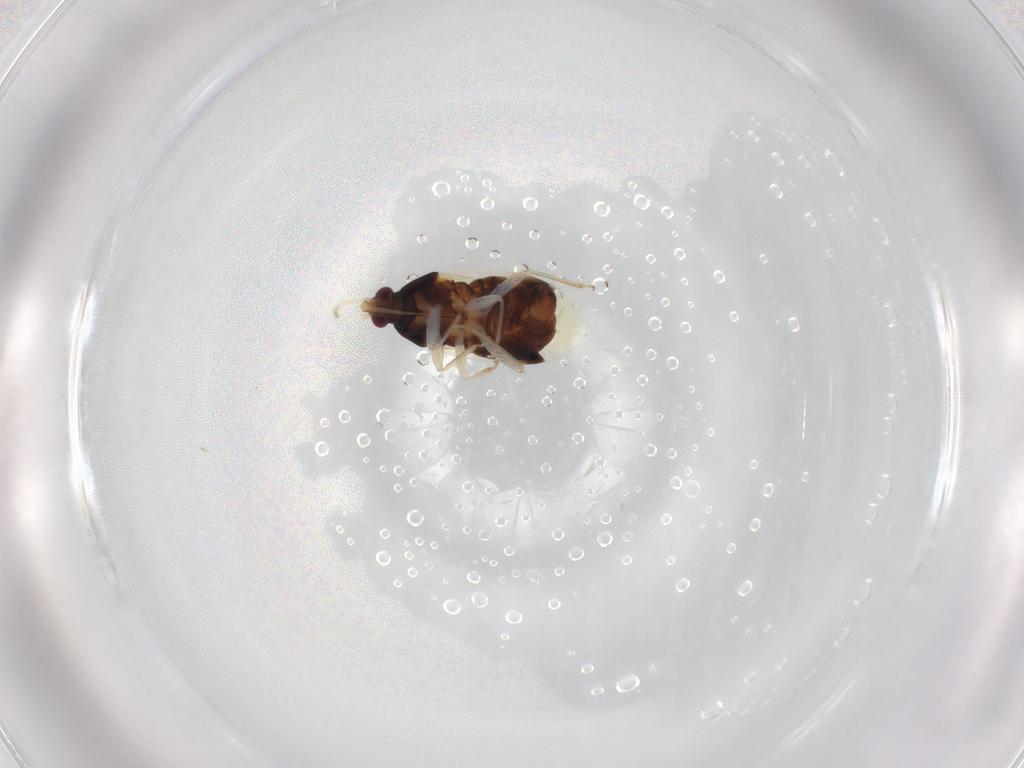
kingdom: Animalia
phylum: Arthropoda
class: Insecta
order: Hemiptera
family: Anthocoridae
